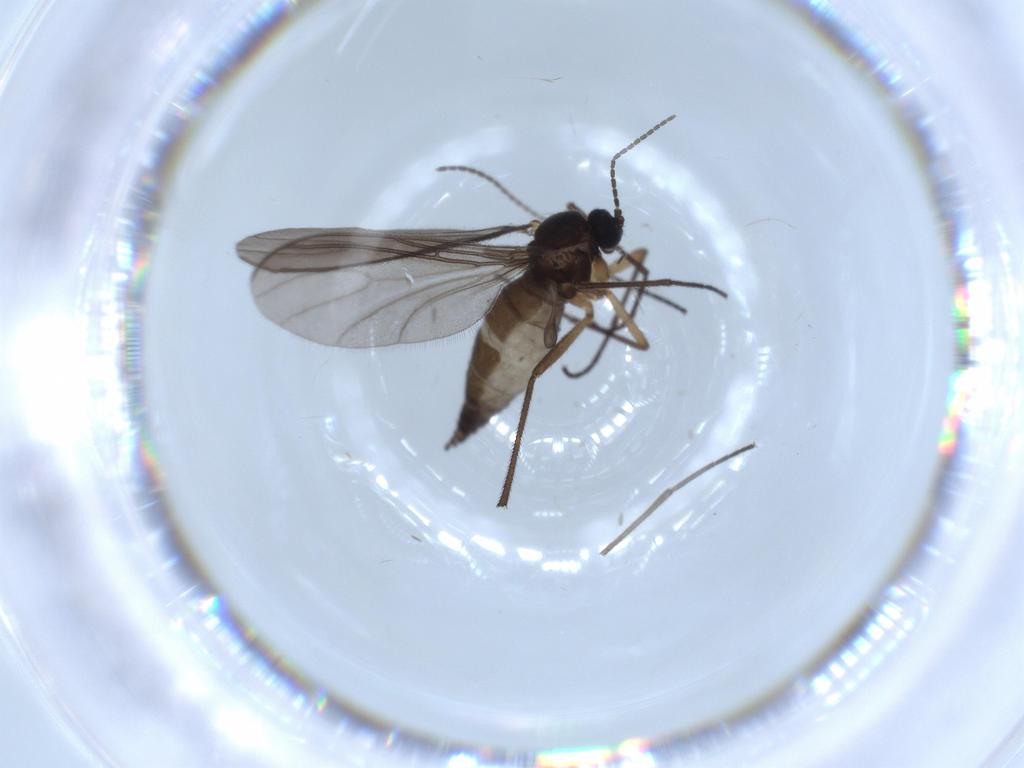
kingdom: Animalia
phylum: Arthropoda
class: Insecta
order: Diptera
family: Sciaridae
